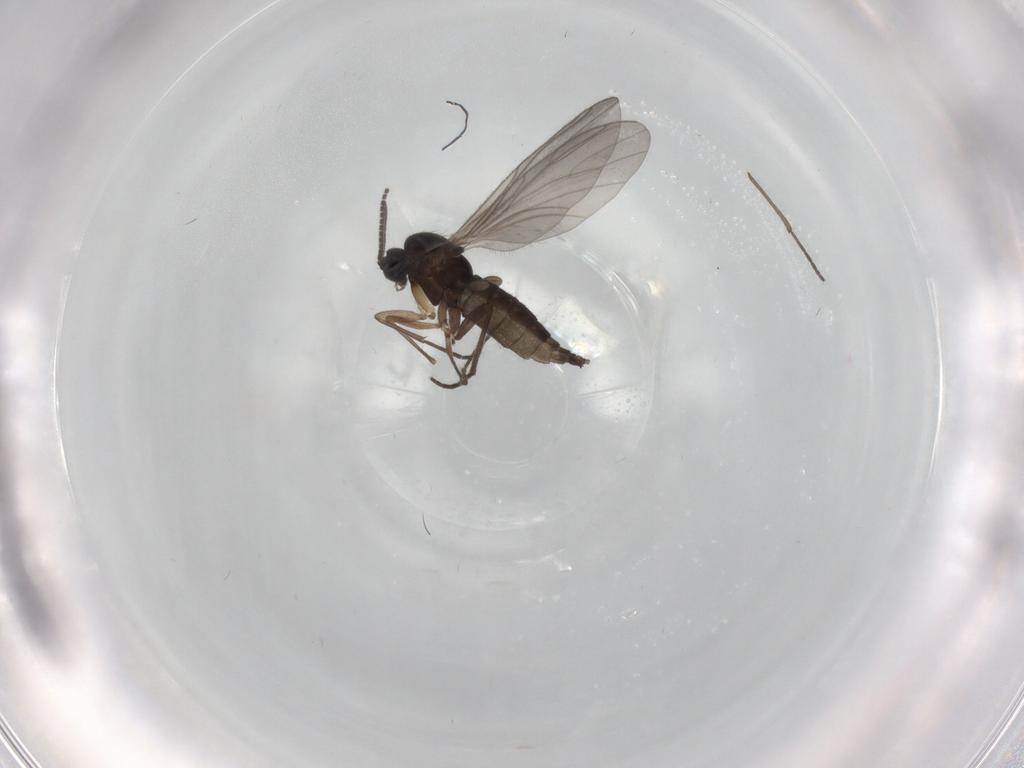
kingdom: Animalia
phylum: Arthropoda
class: Insecta
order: Diptera
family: Sciaridae
